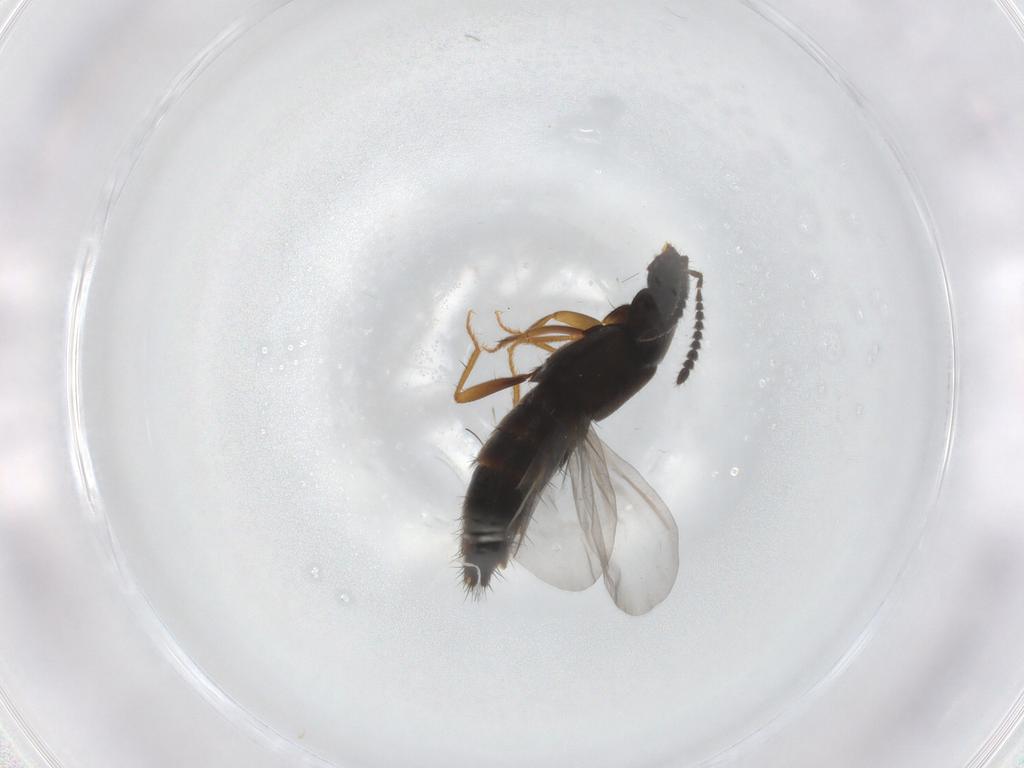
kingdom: Animalia
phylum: Arthropoda
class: Insecta
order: Coleoptera
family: Staphylinidae
